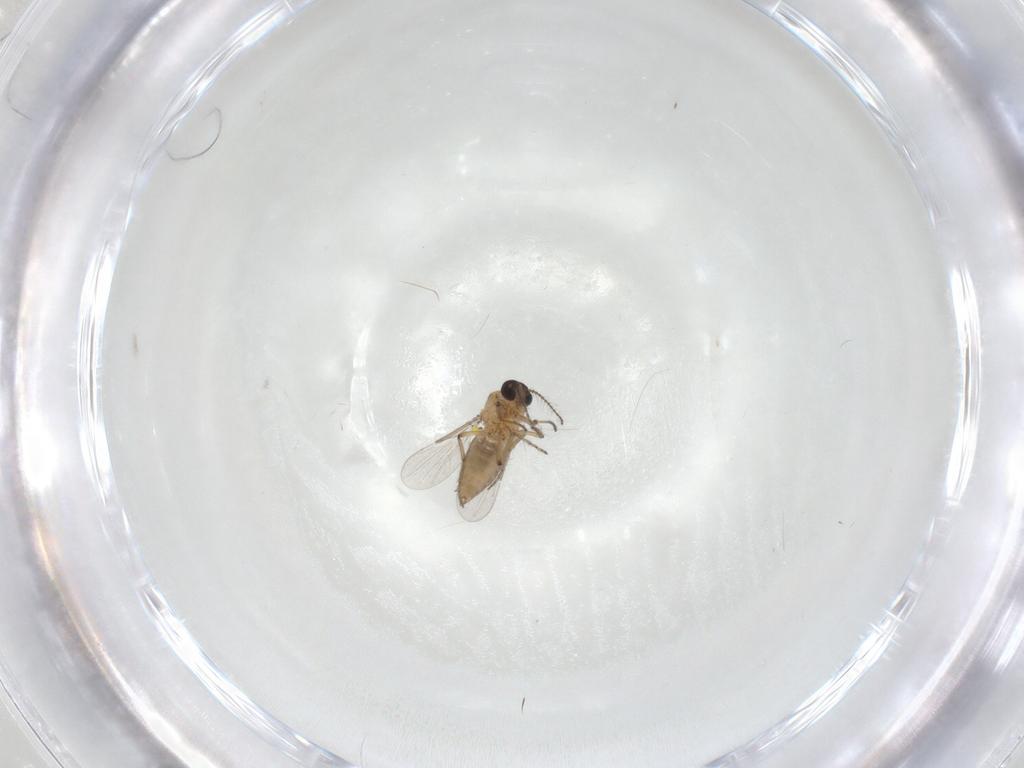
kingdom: Animalia
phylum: Arthropoda
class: Insecta
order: Diptera
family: Ceratopogonidae
